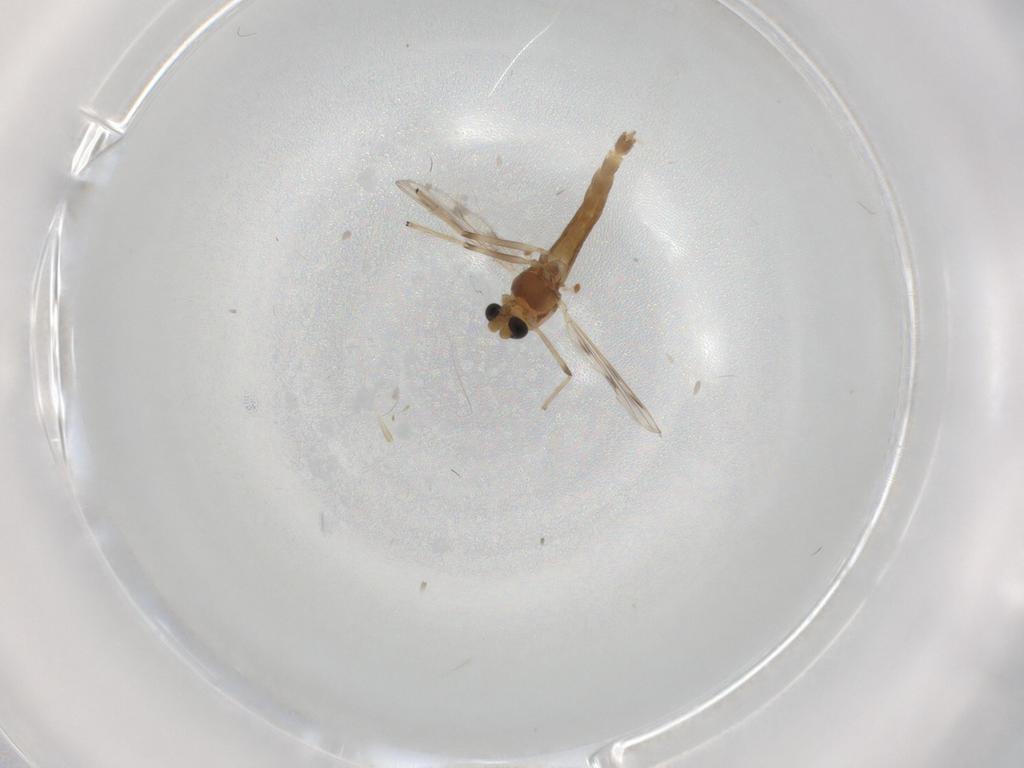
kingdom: Animalia
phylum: Arthropoda
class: Insecta
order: Diptera
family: Chironomidae
